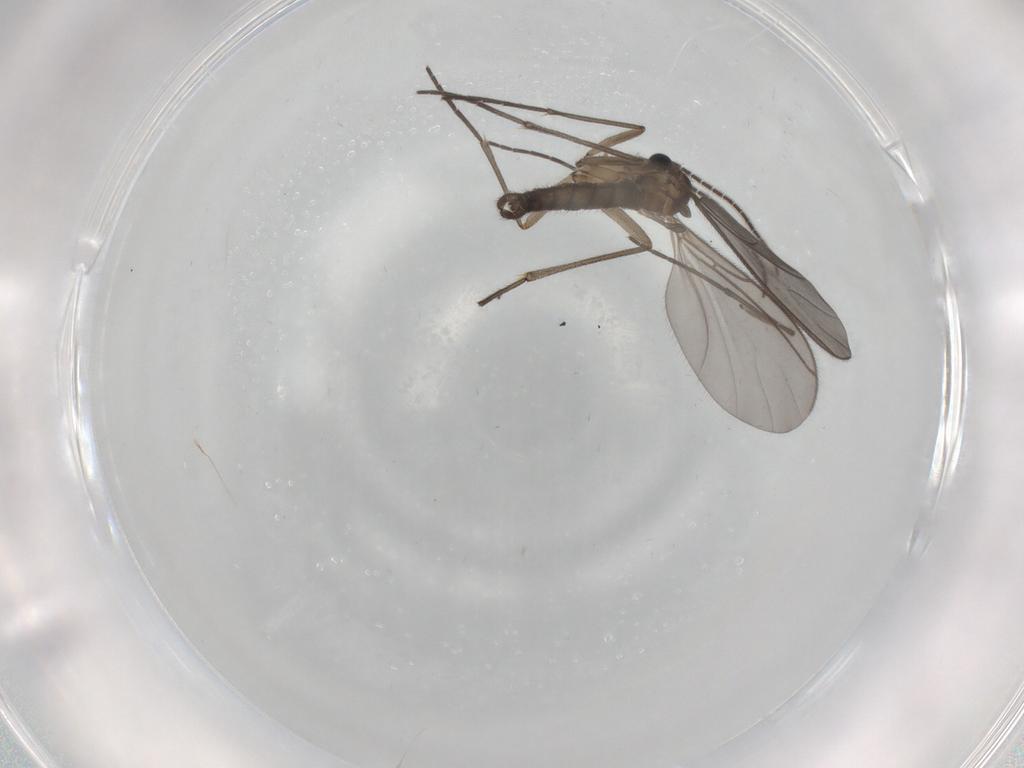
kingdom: Animalia
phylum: Arthropoda
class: Insecta
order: Diptera
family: Sciaridae
